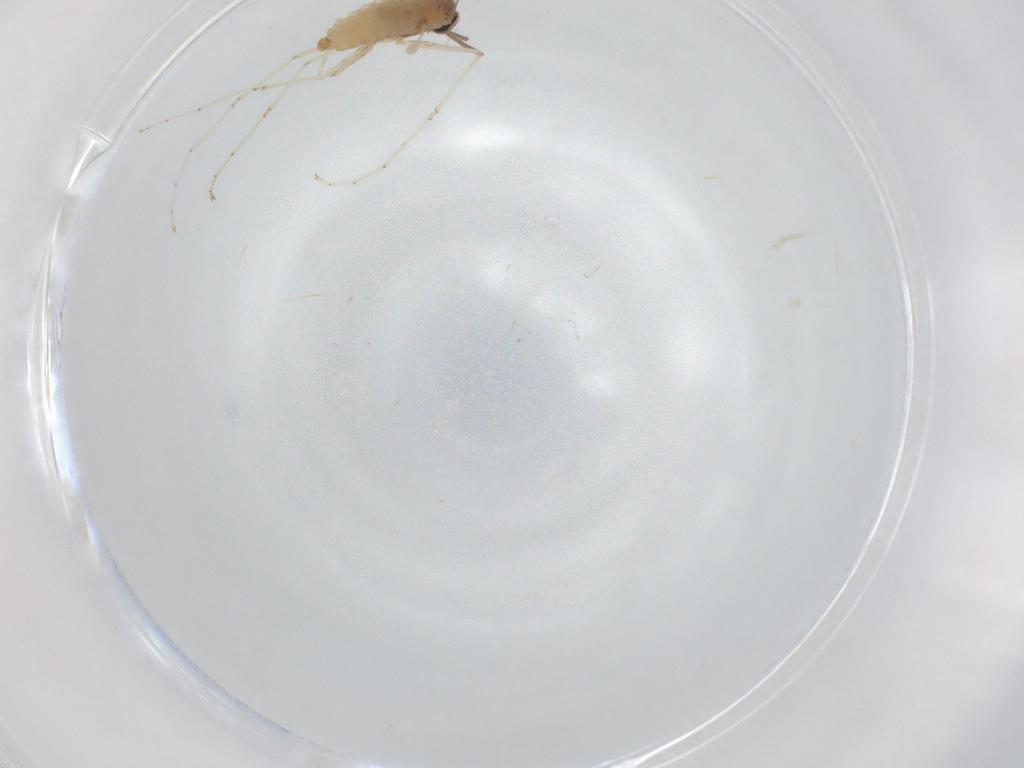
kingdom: Animalia
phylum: Arthropoda
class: Insecta
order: Diptera
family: Cecidomyiidae
